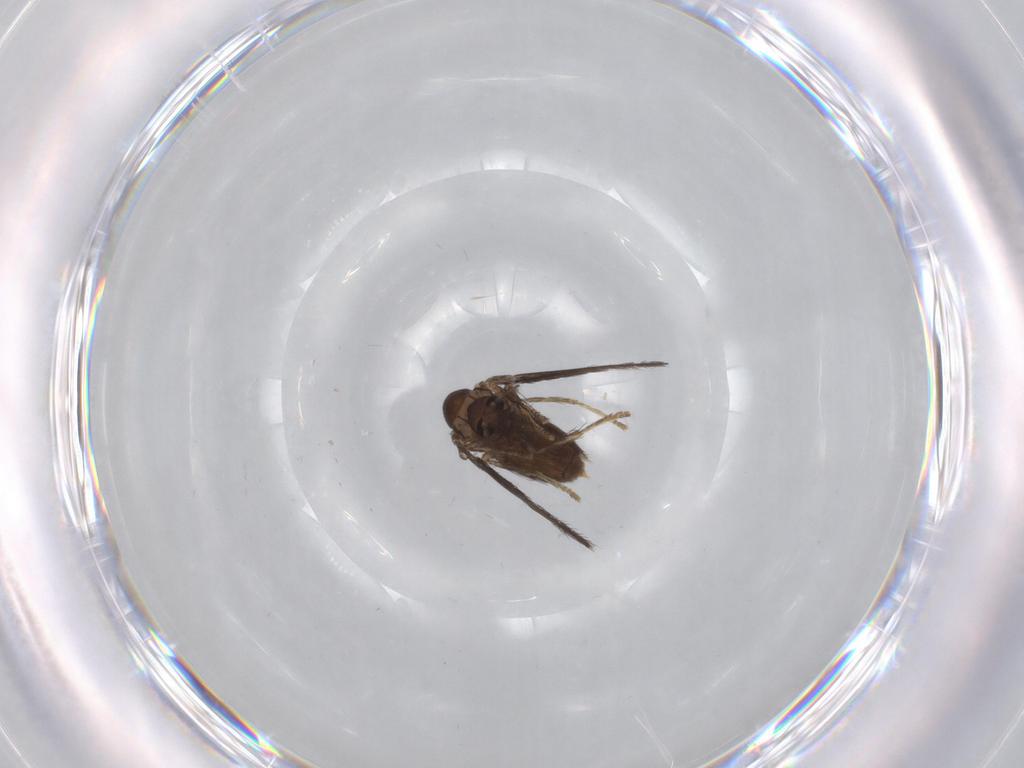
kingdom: Animalia
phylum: Arthropoda
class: Insecta
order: Diptera
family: Psychodidae
